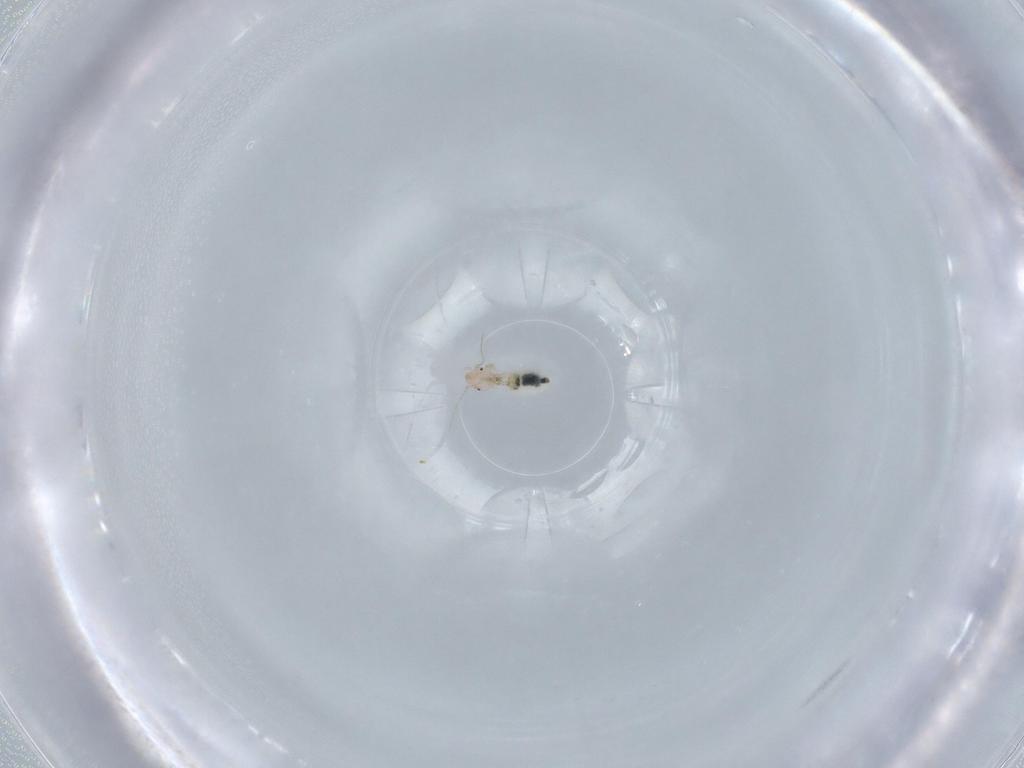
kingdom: Animalia
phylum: Arthropoda
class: Insecta
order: Psocodea
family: Liposcelididae
